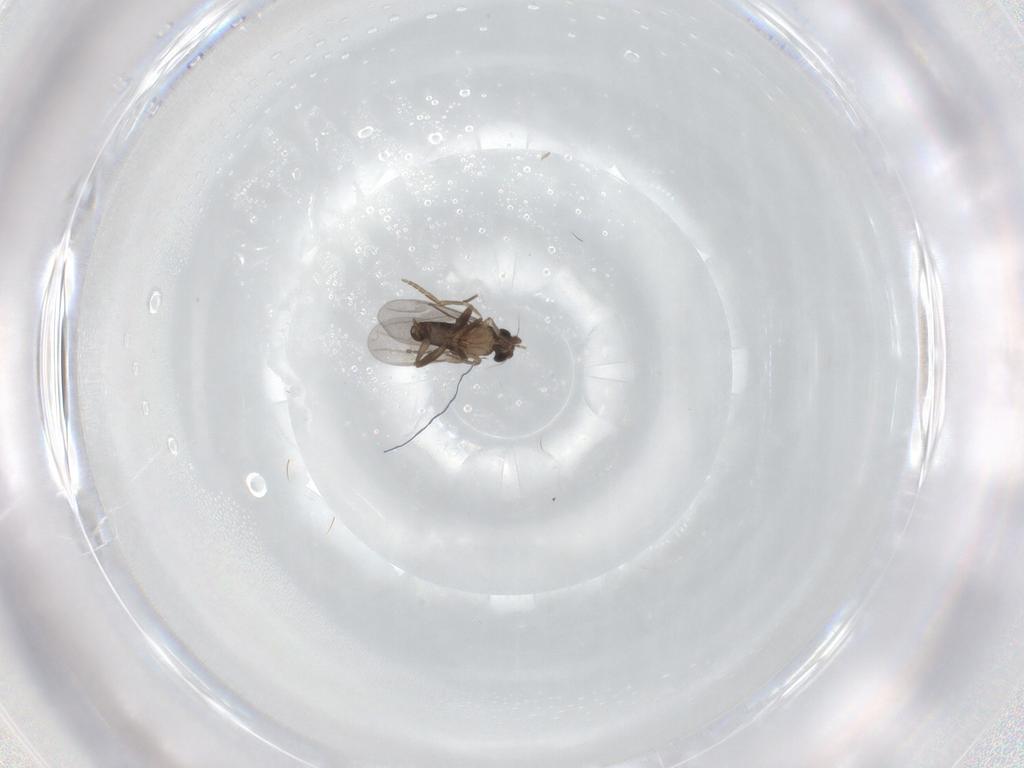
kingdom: Animalia
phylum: Arthropoda
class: Insecta
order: Diptera
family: Cecidomyiidae
